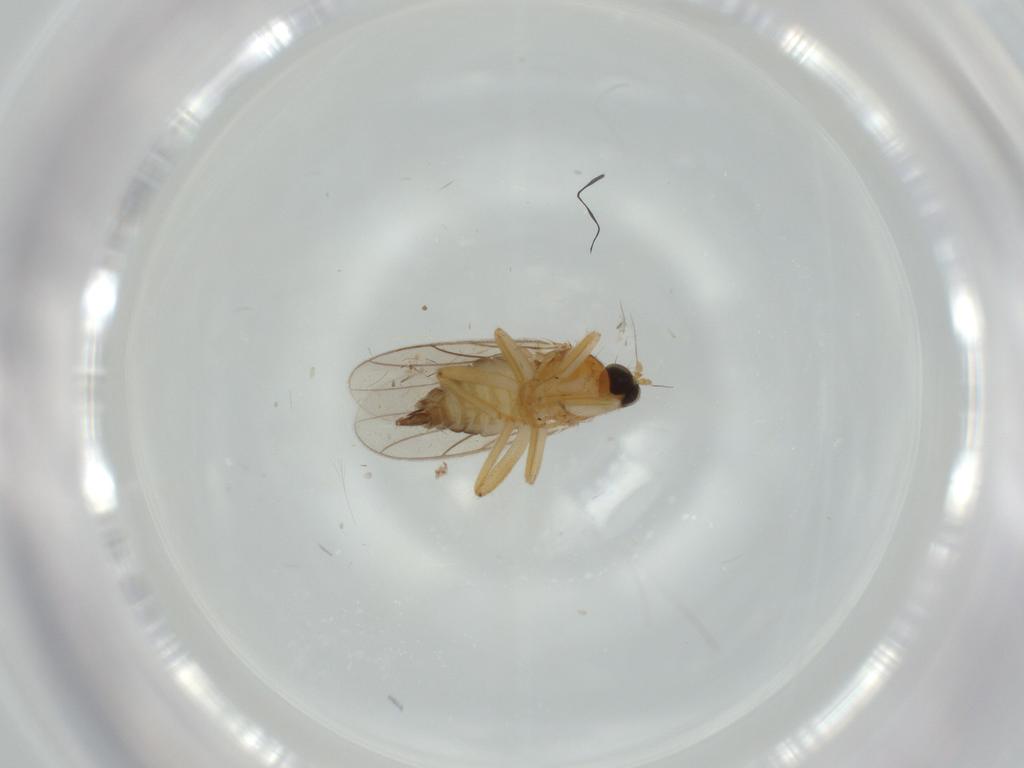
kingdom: Animalia
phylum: Arthropoda
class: Insecta
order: Diptera
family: Hybotidae
